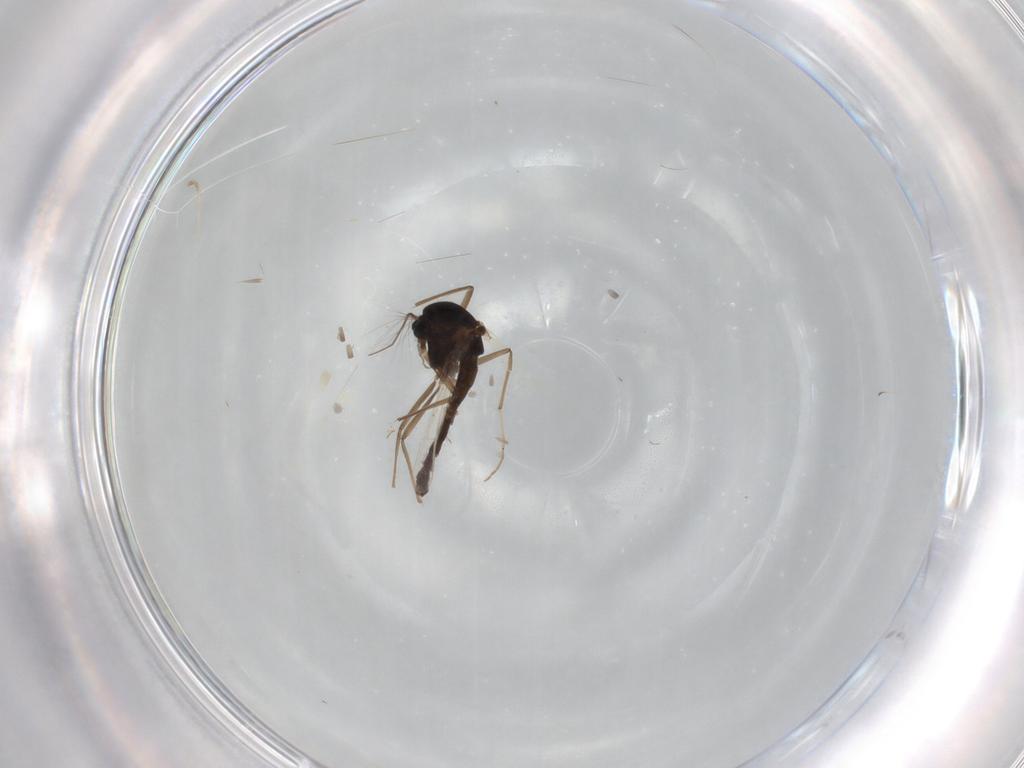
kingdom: Animalia
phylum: Arthropoda
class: Insecta
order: Diptera
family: Chironomidae
